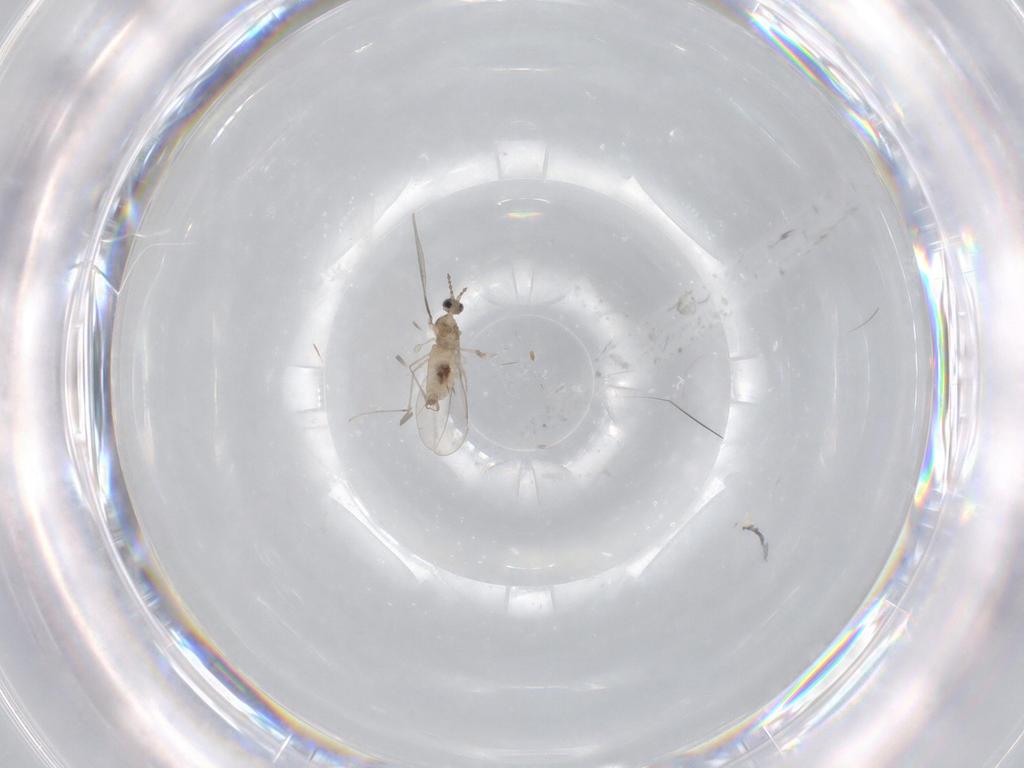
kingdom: Animalia
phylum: Arthropoda
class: Insecta
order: Diptera
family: Cecidomyiidae
